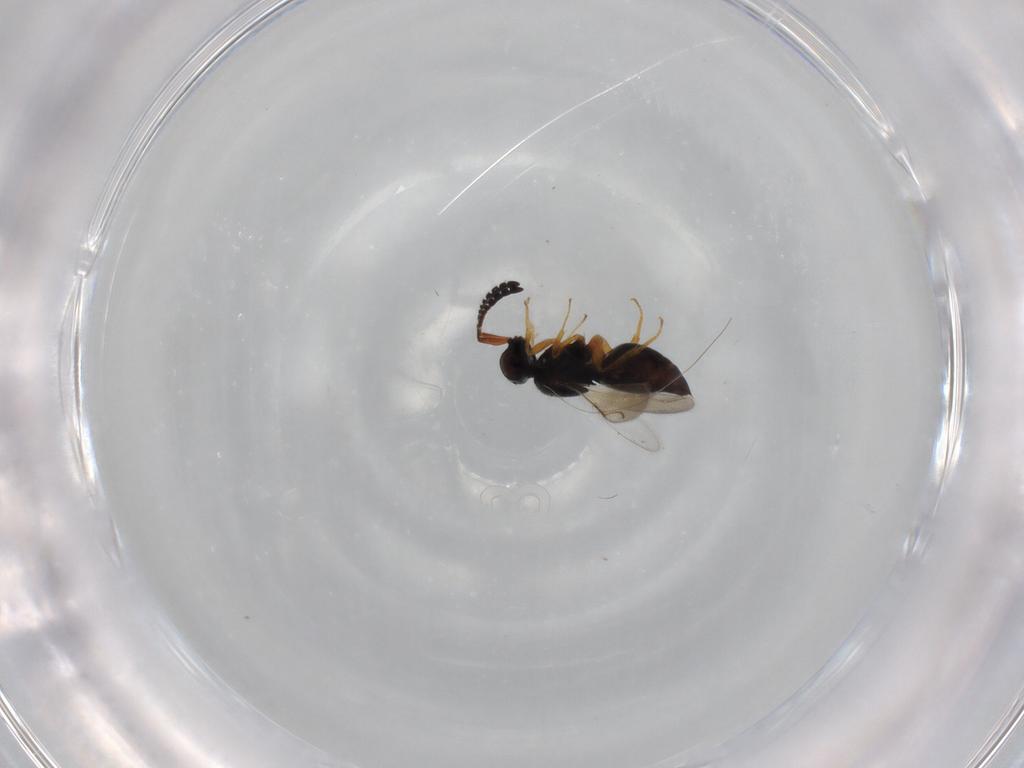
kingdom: Animalia
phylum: Arthropoda
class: Insecta
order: Hymenoptera
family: Ceraphronidae
